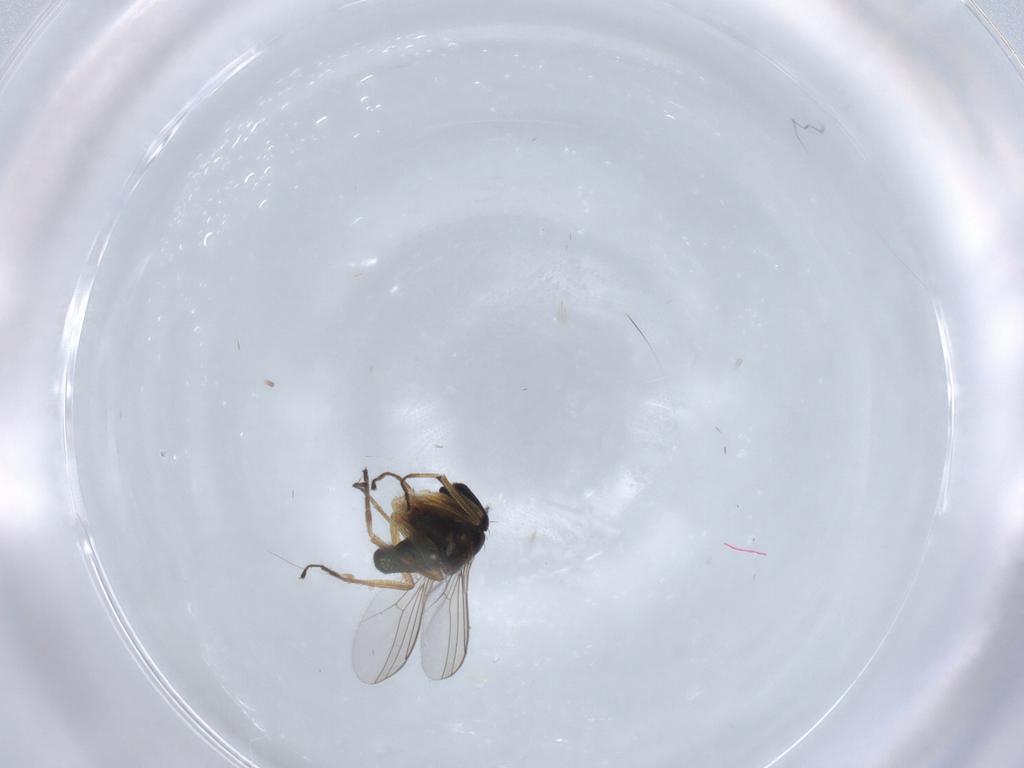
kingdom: Animalia
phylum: Arthropoda
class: Insecta
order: Diptera
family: Dolichopodidae
